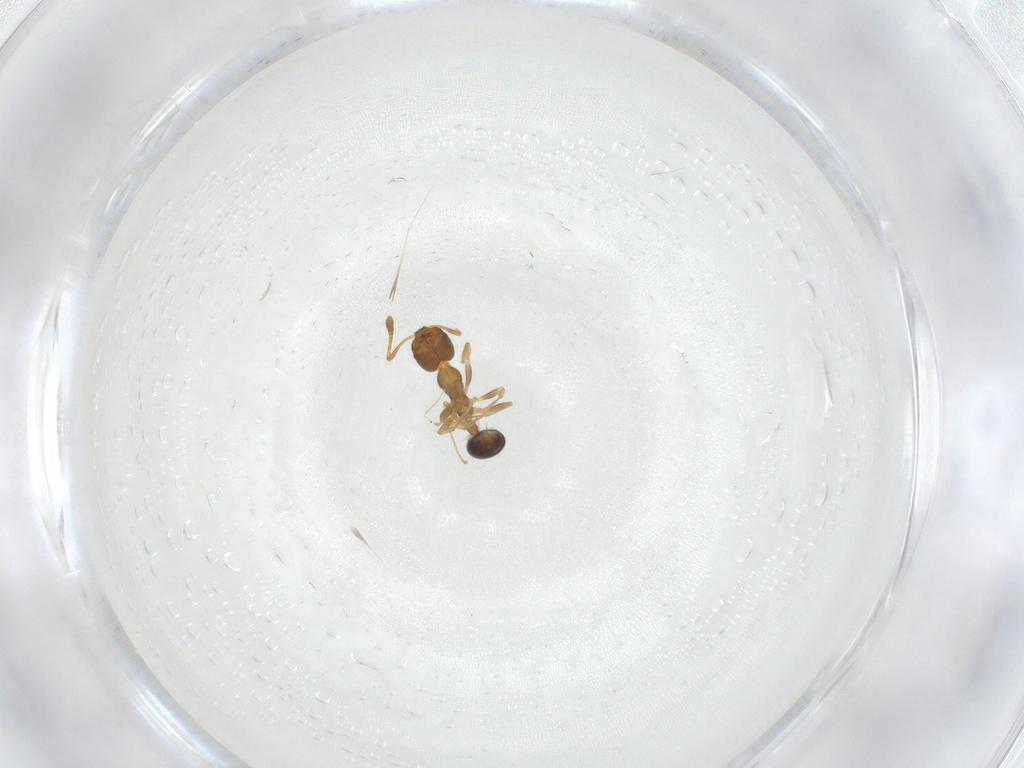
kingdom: Animalia
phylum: Arthropoda
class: Insecta
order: Hymenoptera
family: Formicidae
